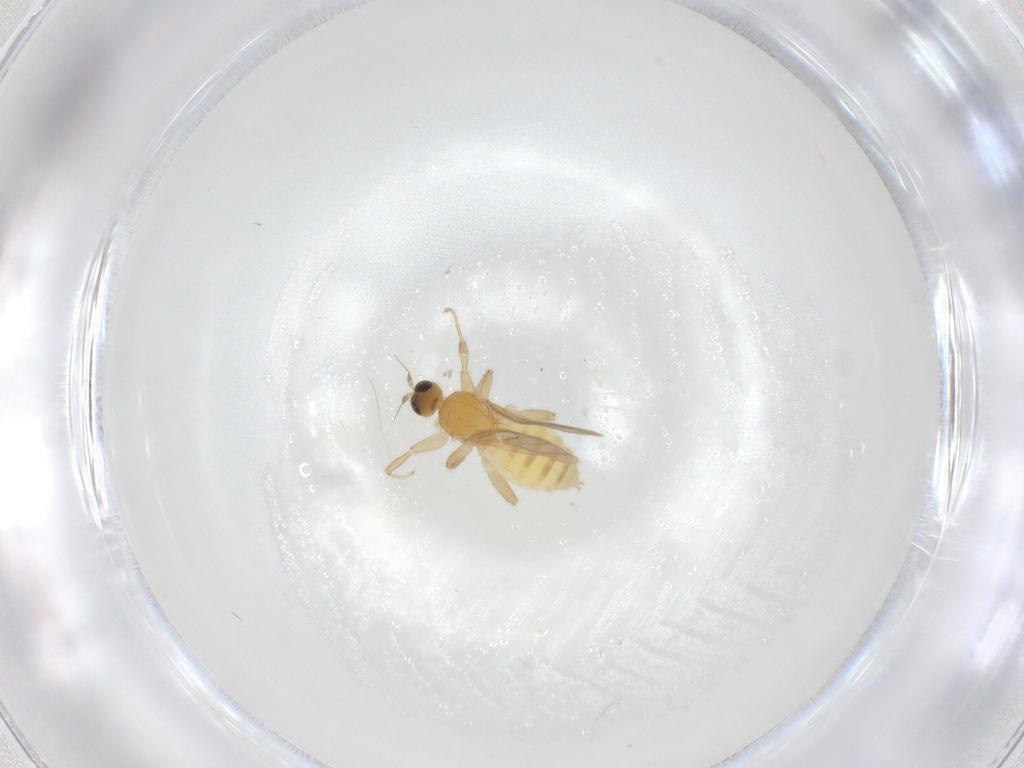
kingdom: Animalia
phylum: Arthropoda
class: Insecta
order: Diptera
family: Hybotidae
